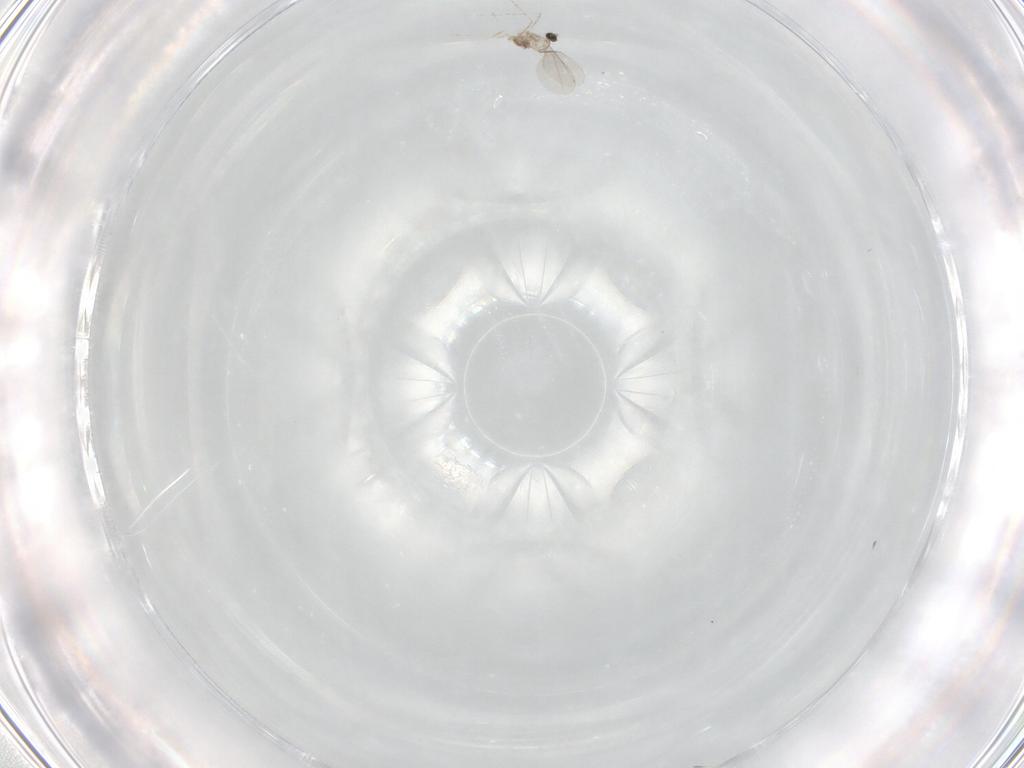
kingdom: Animalia
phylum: Arthropoda
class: Insecta
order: Diptera
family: Cecidomyiidae
